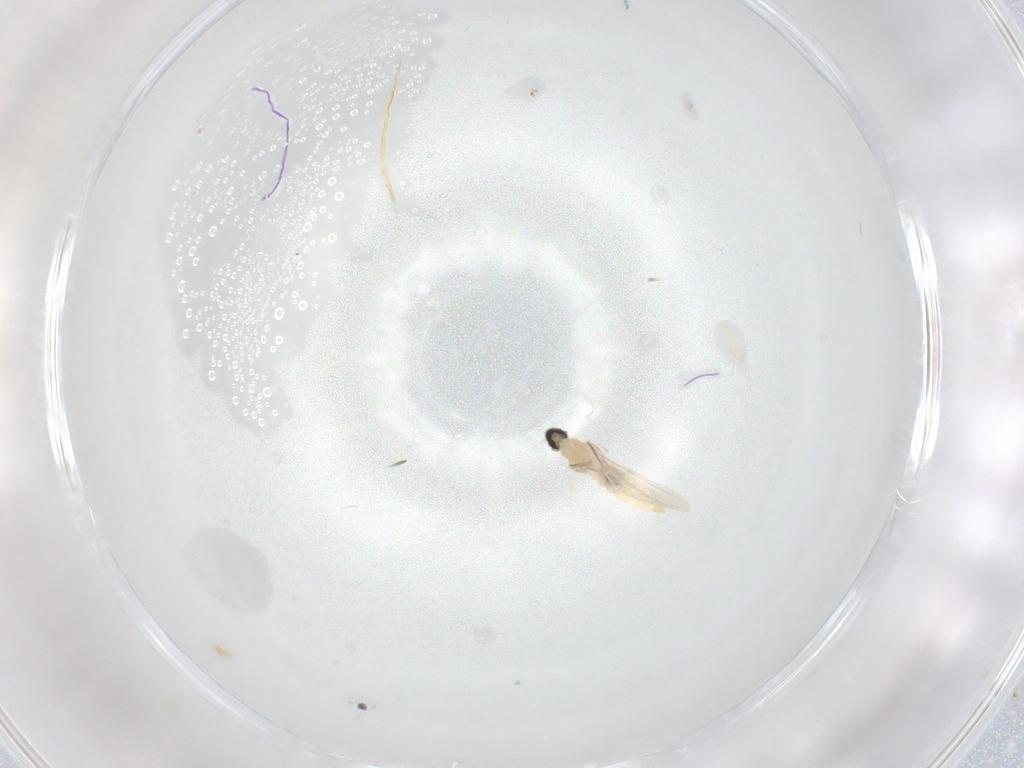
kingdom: Animalia
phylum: Arthropoda
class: Insecta
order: Diptera
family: Cecidomyiidae
